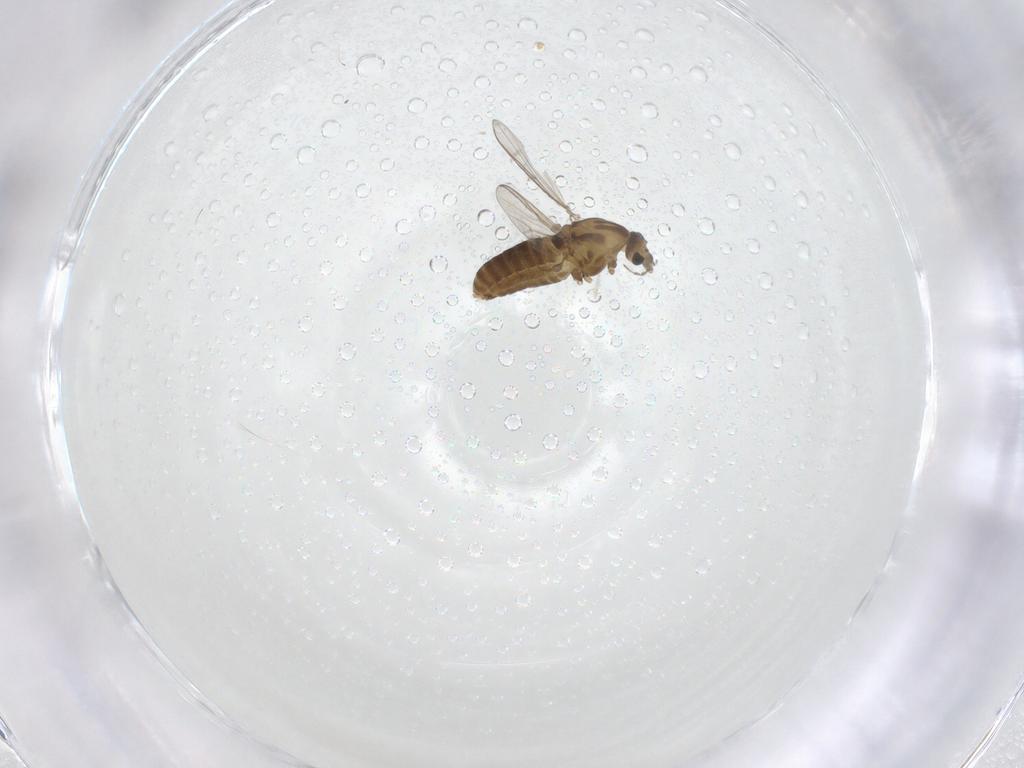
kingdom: Animalia
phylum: Arthropoda
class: Insecta
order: Diptera
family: Chironomidae
